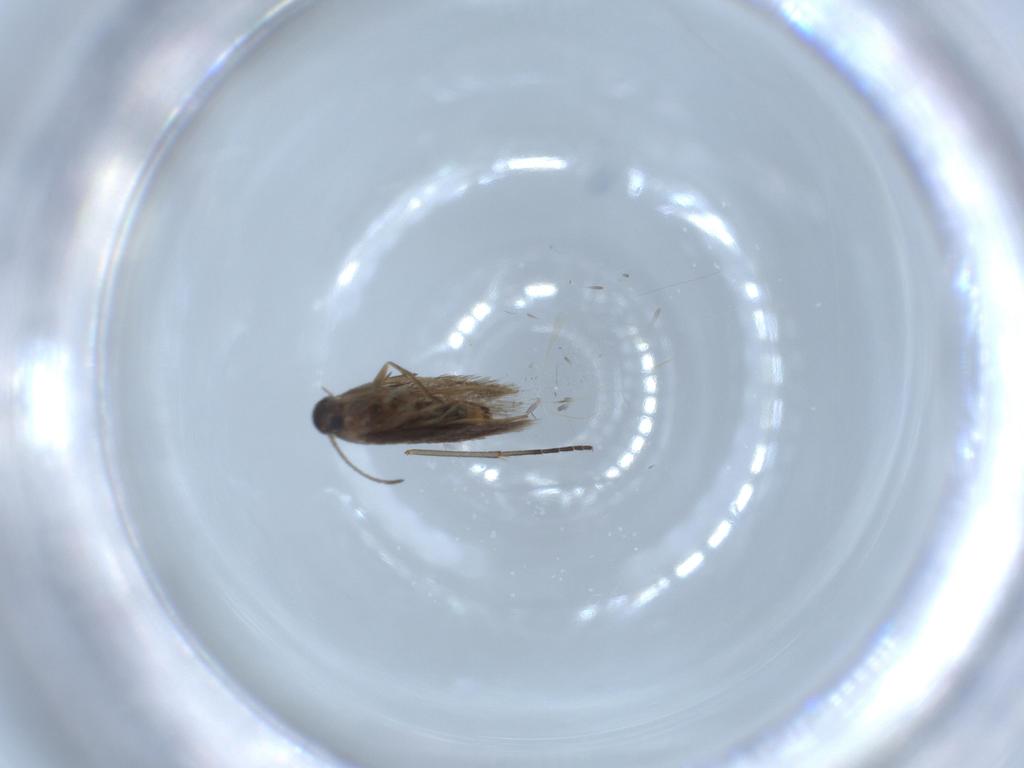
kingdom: Animalia
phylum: Arthropoda
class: Insecta
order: Lepidoptera
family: Heliozelidae
